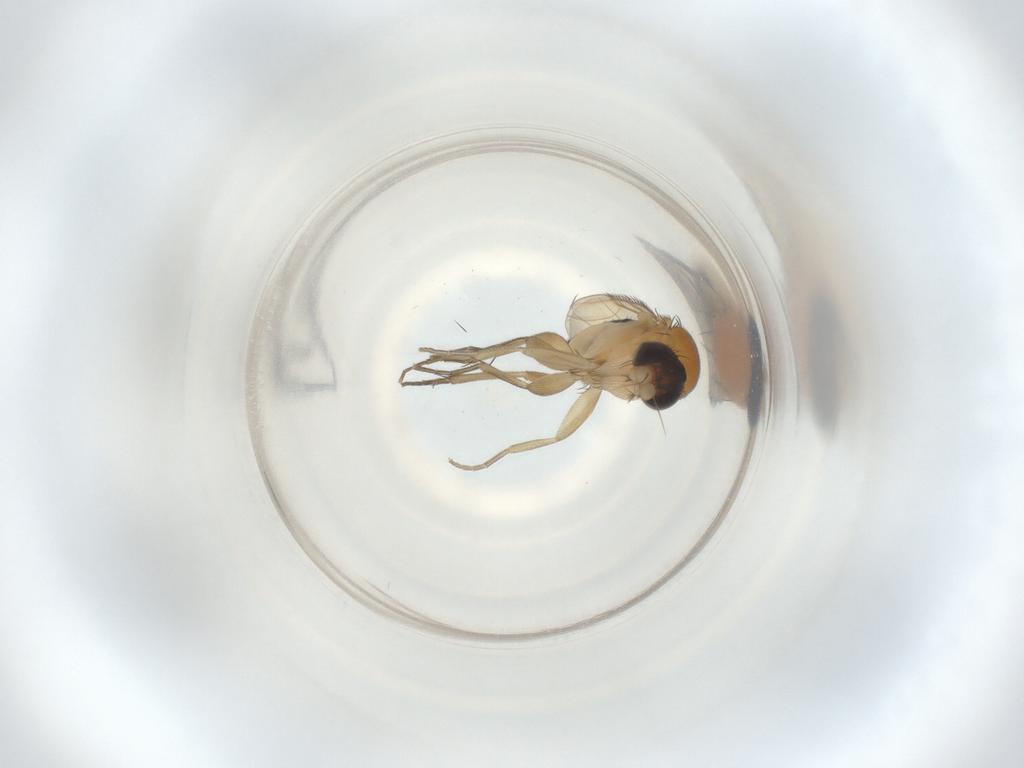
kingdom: Animalia
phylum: Arthropoda
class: Insecta
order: Diptera
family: Phoridae
